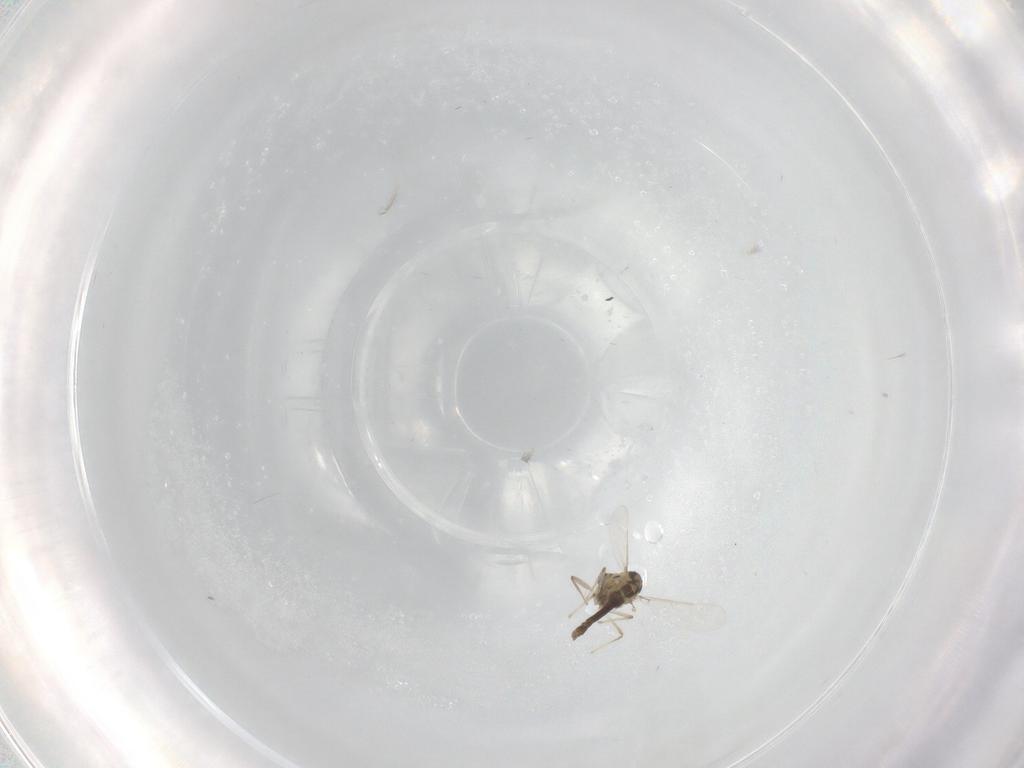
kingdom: Animalia
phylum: Arthropoda
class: Insecta
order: Diptera
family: Chironomidae
